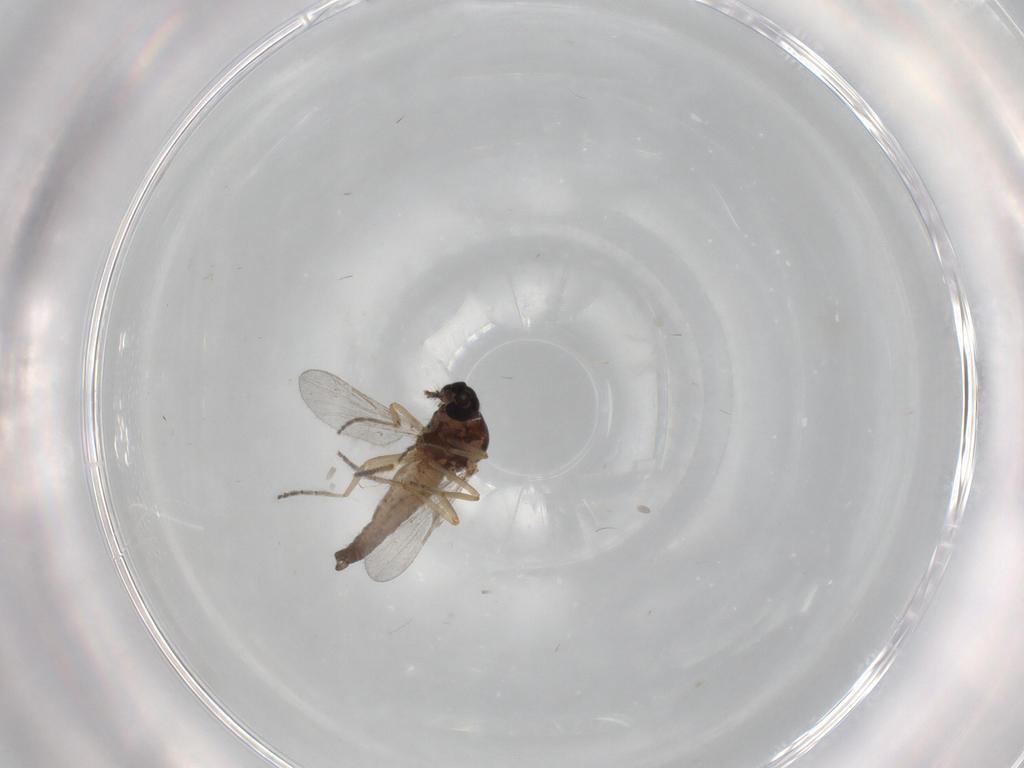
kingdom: Animalia
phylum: Arthropoda
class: Insecta
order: Diptera
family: Ceratopogonidae
